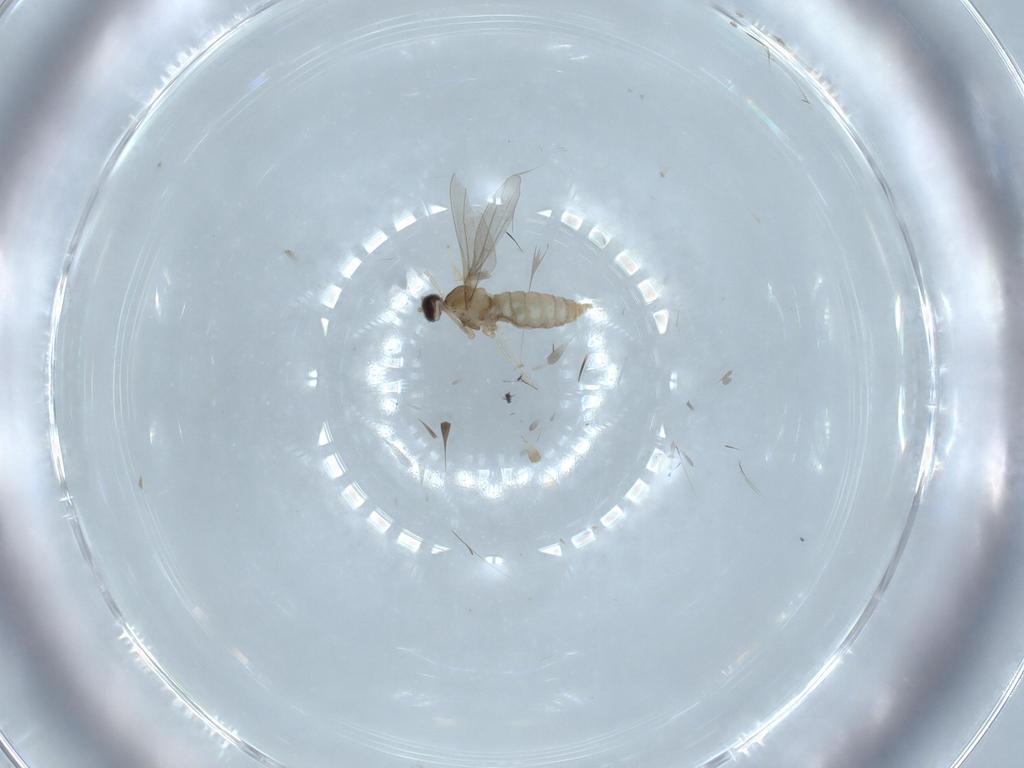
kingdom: Animalia
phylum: Arthropoda
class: Insecta
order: Diptera
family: Cecidomyiidae
